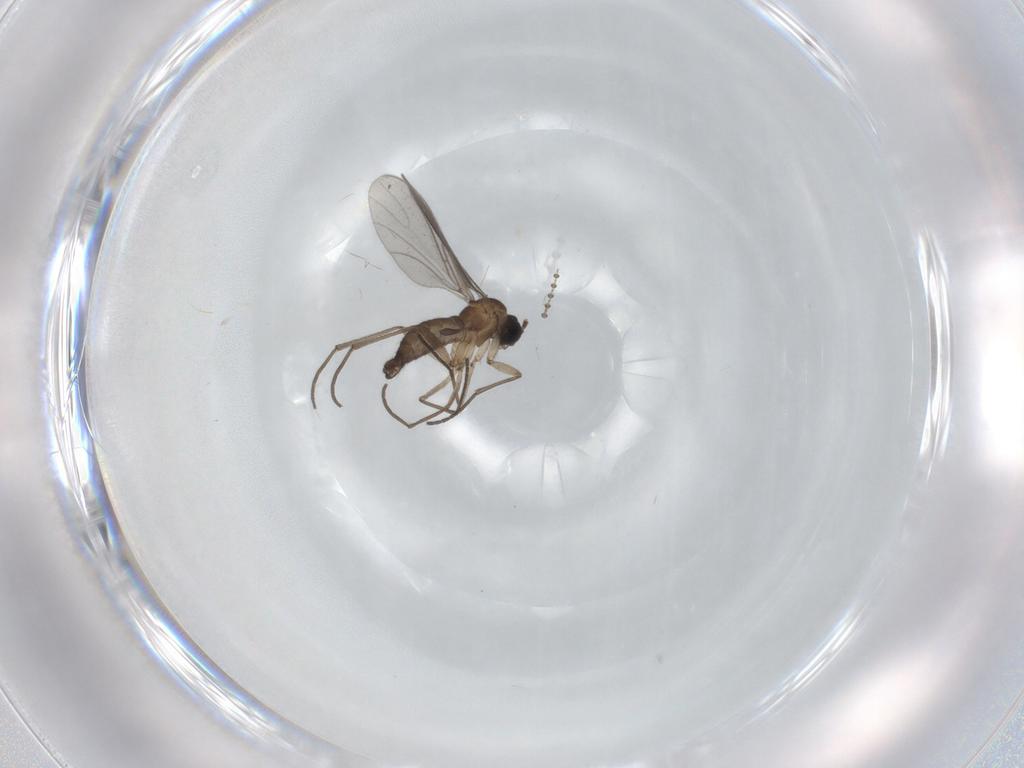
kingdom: Animalia
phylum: Arthropoda
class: Insecta
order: Diptera
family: Sciaridae
